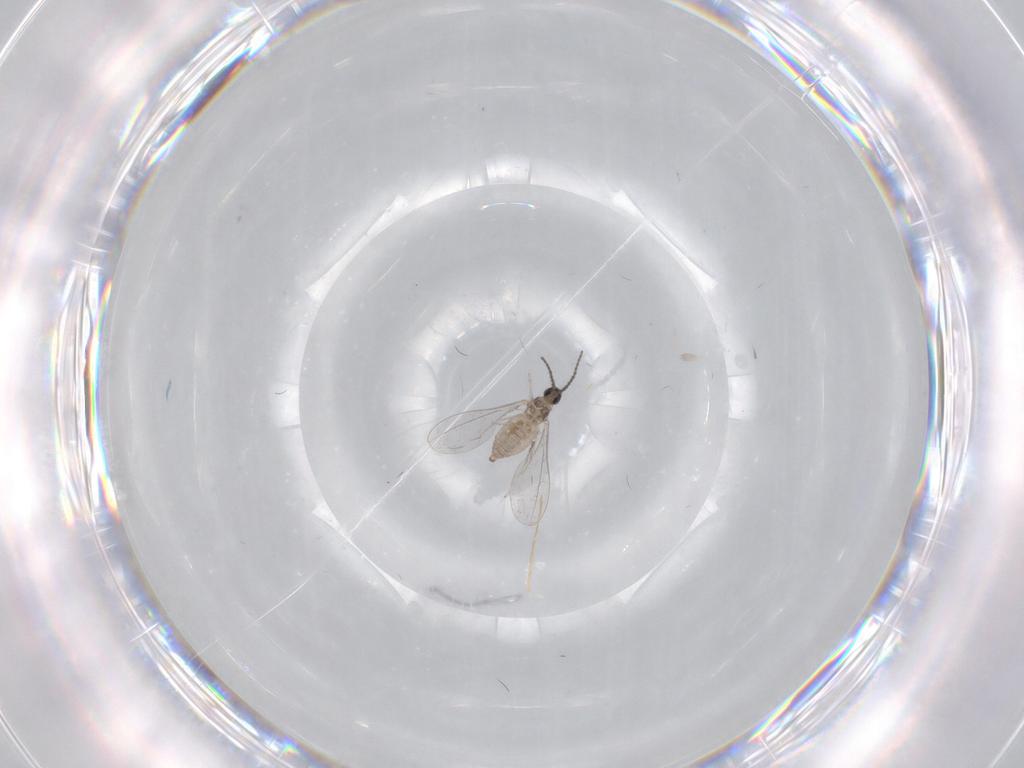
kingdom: Animalia
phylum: Arthropoda
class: Insecta
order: Diptera
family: Cecidomyiidae
